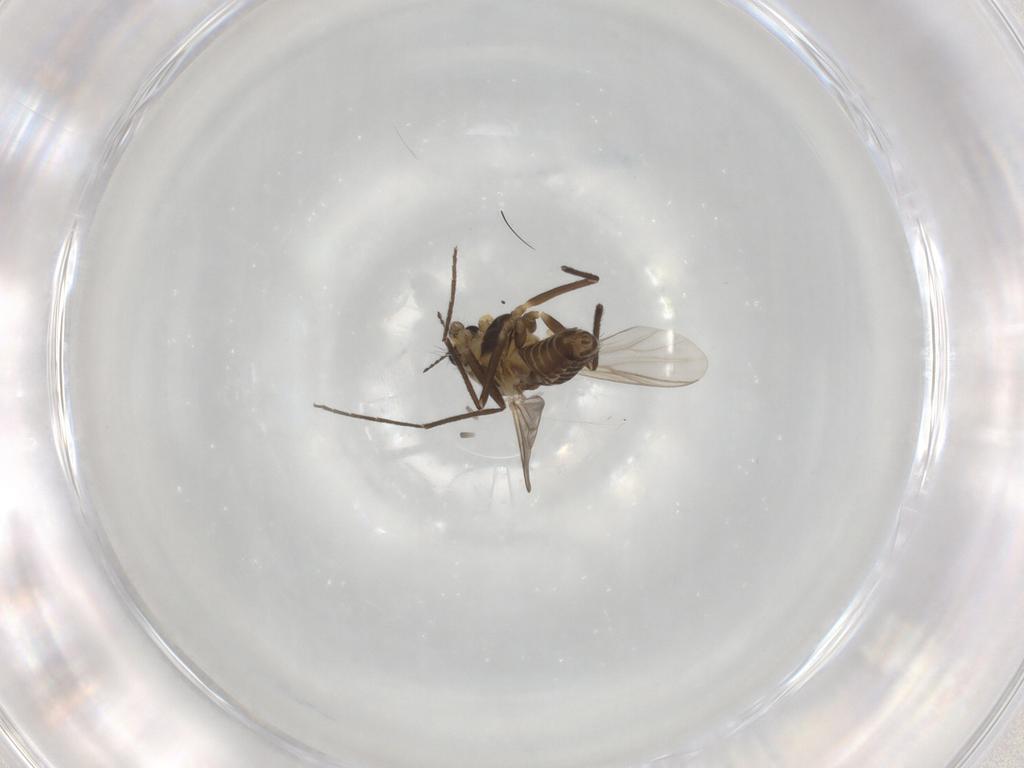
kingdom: Animalia
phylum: Arthropoda
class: Insecta
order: Diptera
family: Chironomidae
